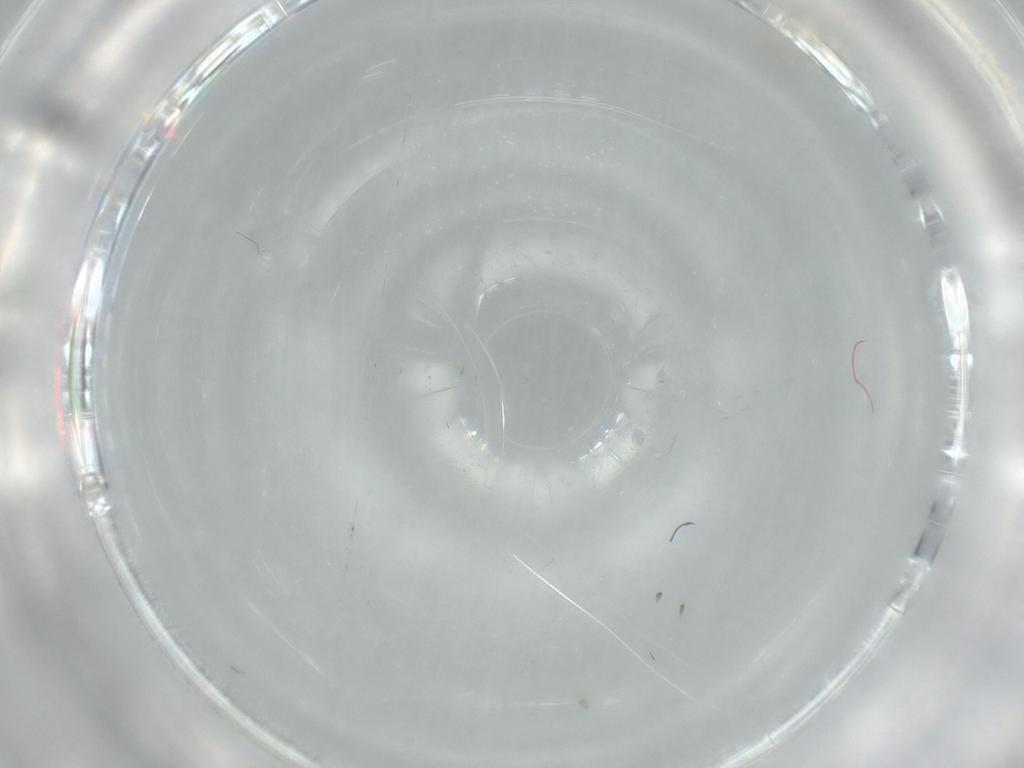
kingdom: Animalia
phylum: Arthropoda
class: Insecta
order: Diptera
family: Cecidomyiidae
